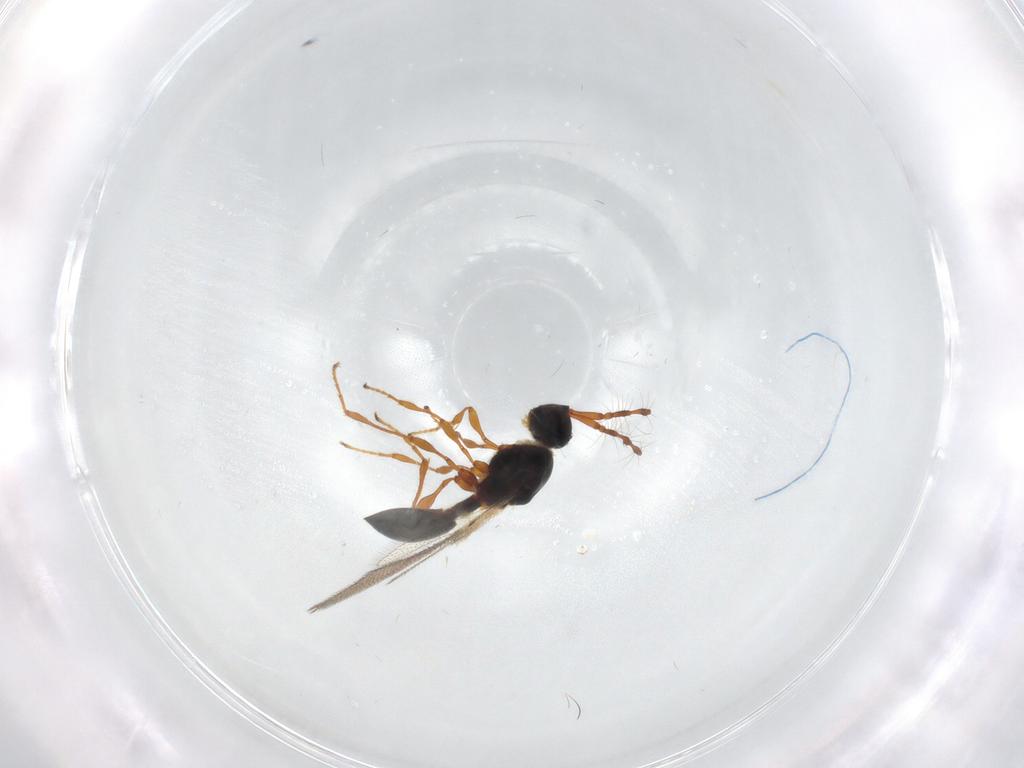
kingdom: Animalia
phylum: Arthropoda
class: Insecta
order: Hymenoptera
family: Diapriidae
